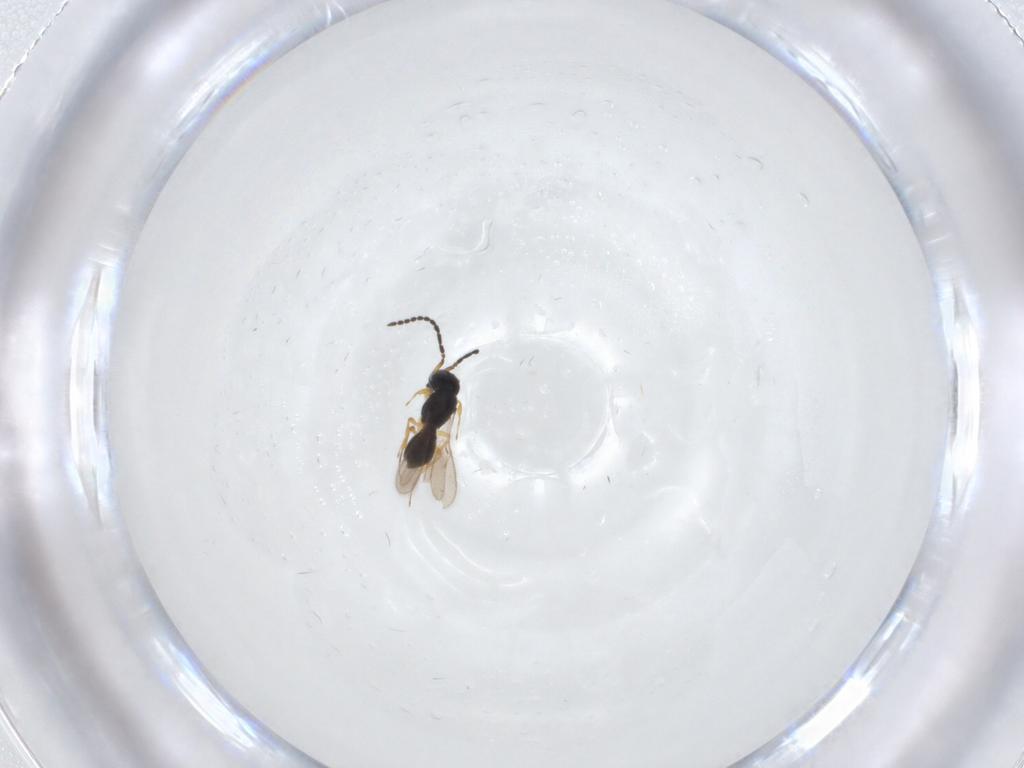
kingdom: Animalia
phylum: Arthropoda
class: Insecta
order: Hymenoptera
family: Scelionidae
